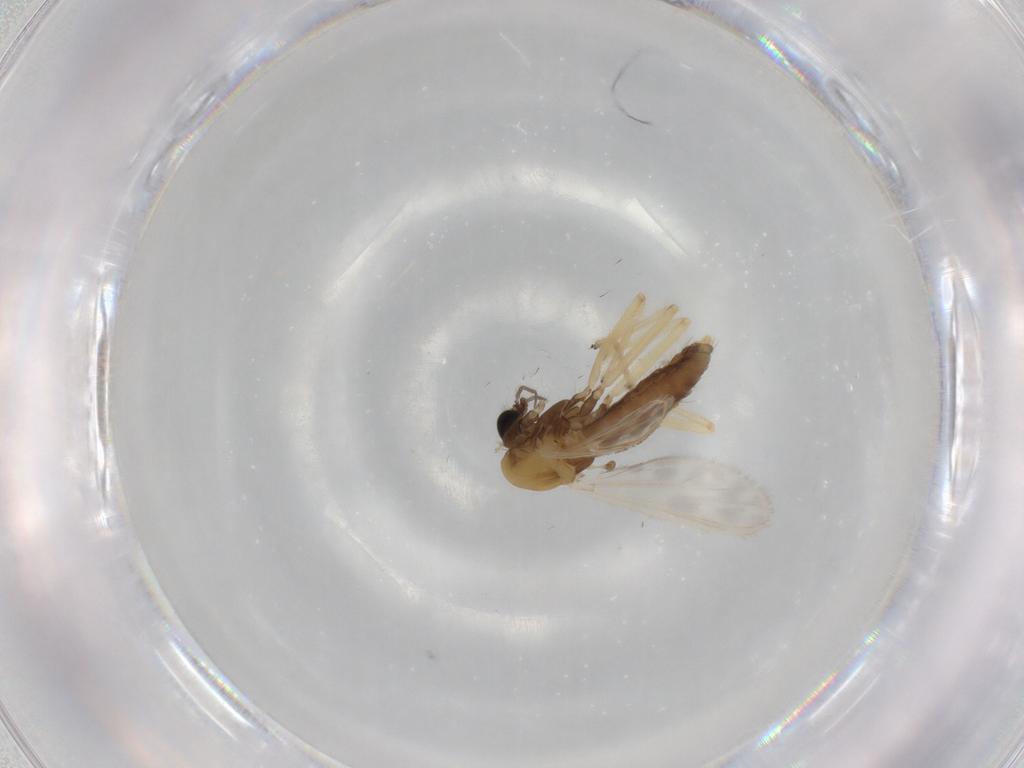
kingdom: Animalia
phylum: Arthropoda
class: Insecta
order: Diptera
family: Chironomidae
